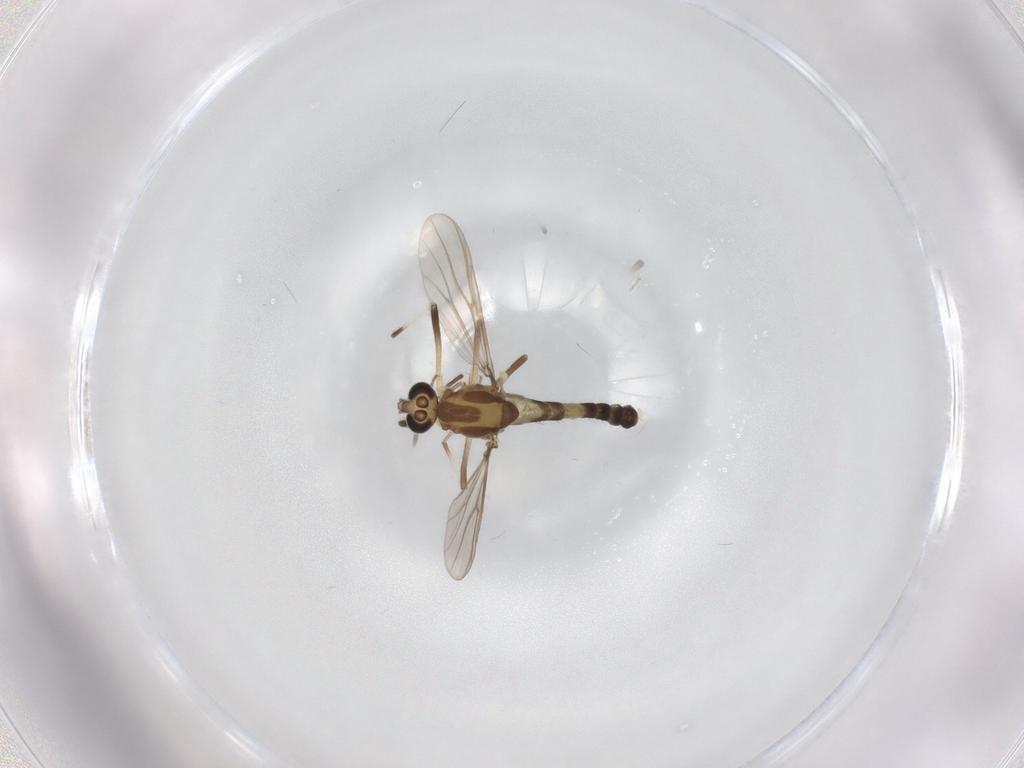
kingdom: Animalia
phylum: Arthropoda
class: Insecta
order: Diptera
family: Chironomidae
